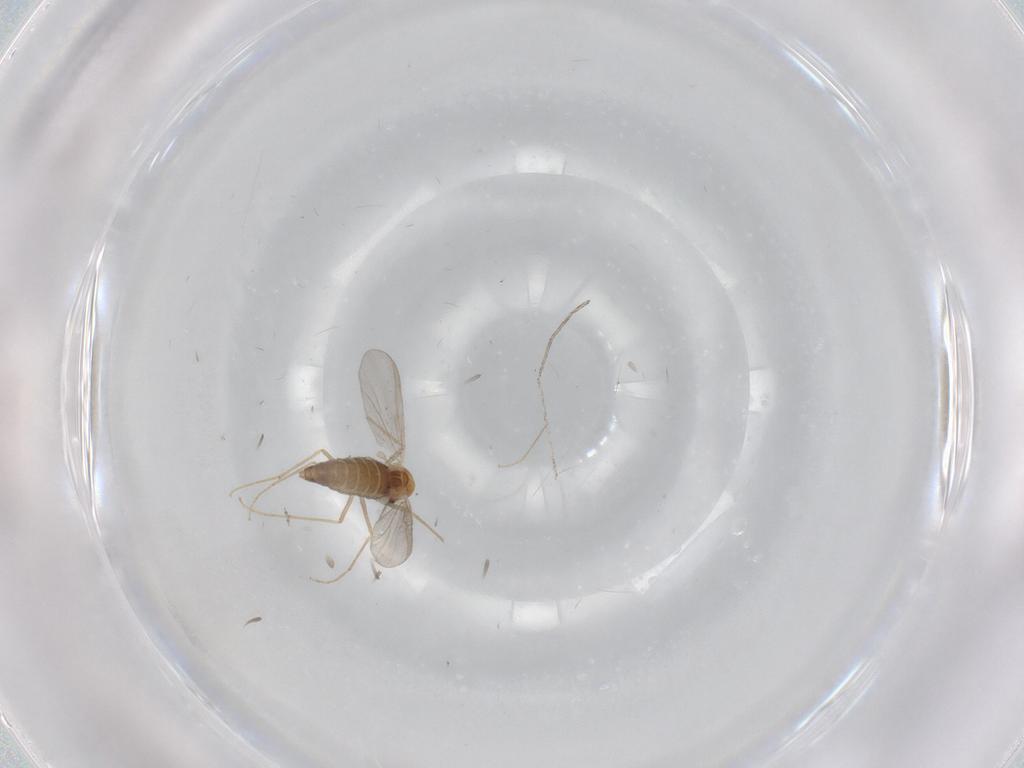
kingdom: Animalia
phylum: Arthropoda
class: Insecta
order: Diptera
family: Chironomidae
